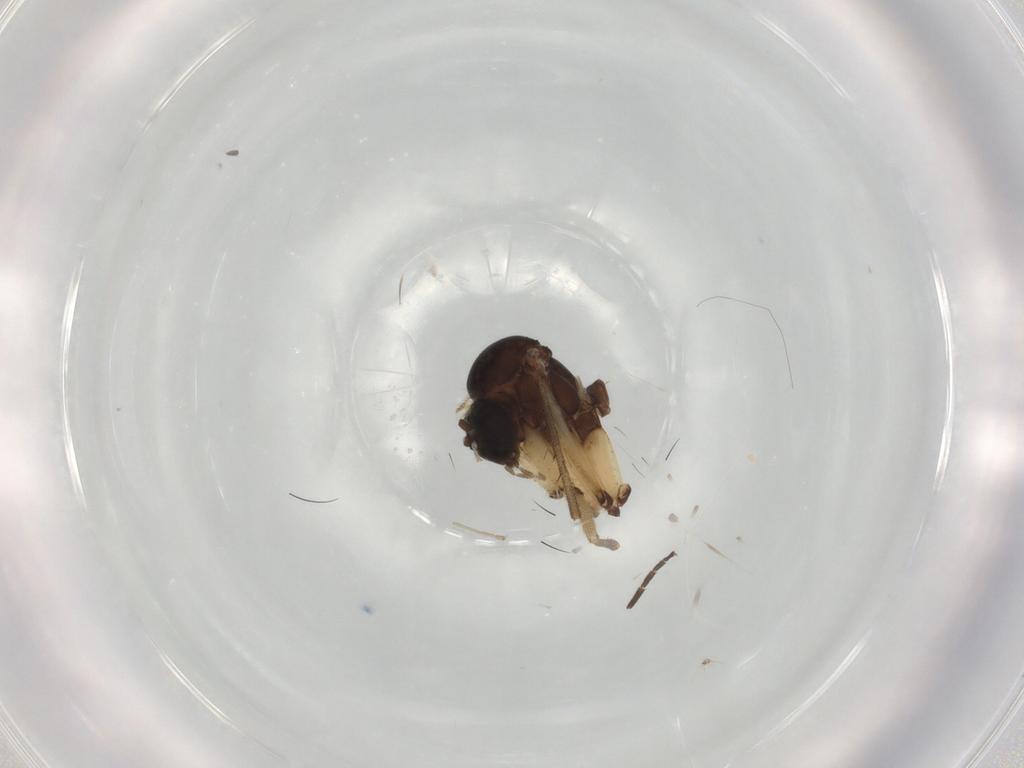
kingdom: Animalia
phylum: Arthropoda
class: Insecta
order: Diptera
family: Mycetophilidae
